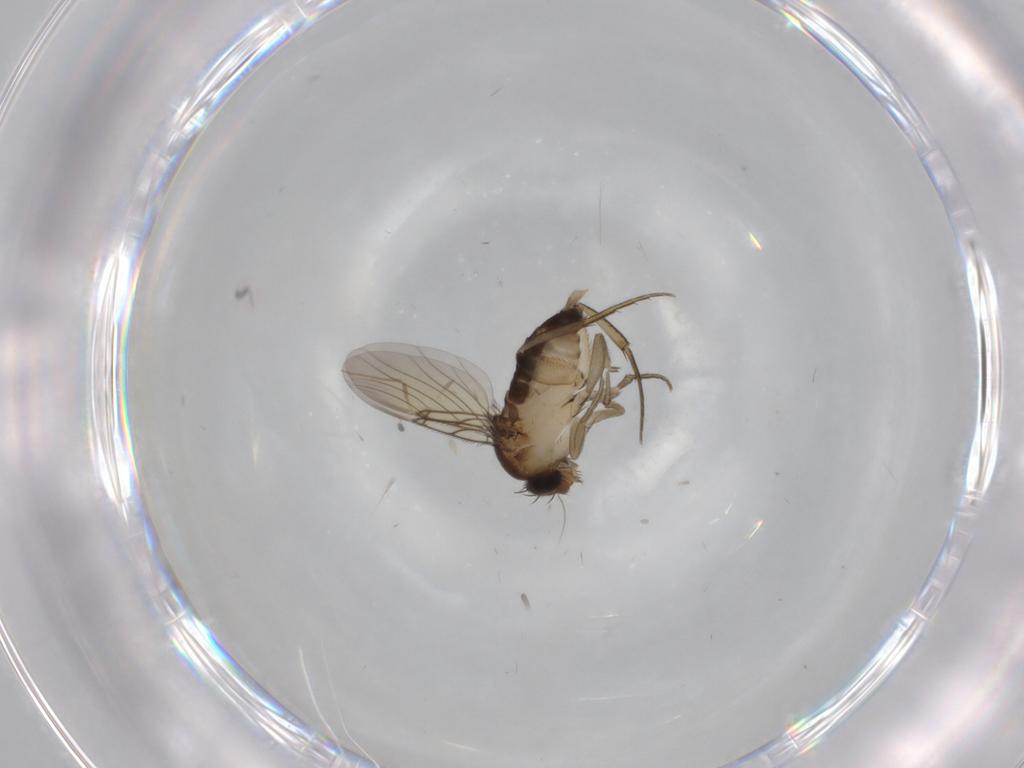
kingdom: Animalia
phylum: Arthropoda
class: Insecta
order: Diptera
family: Phoridae
